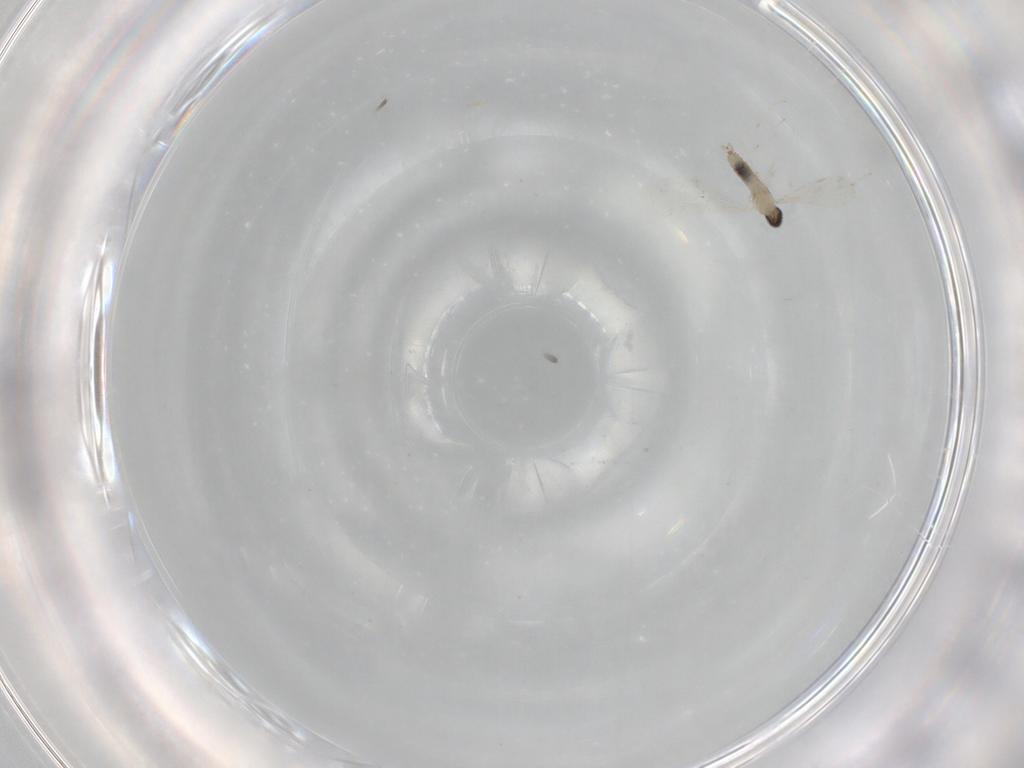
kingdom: Animalia
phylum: Arthropoda
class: Insecta
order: Diptera
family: Cecidomyiidae
